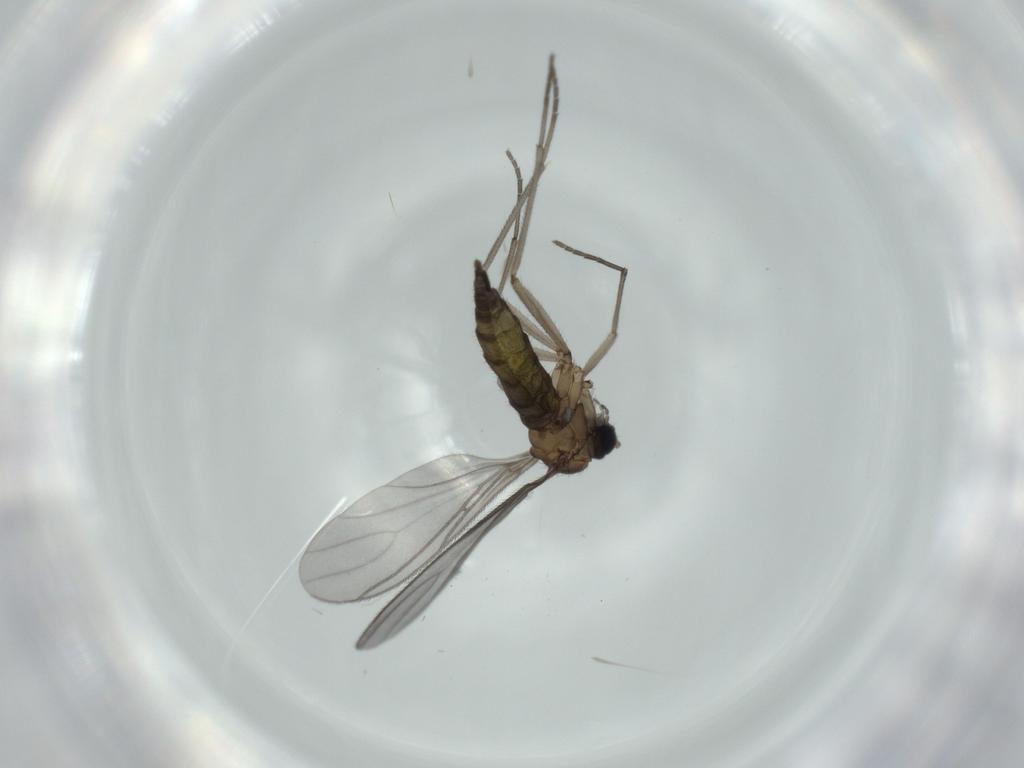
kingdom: Animalia
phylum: Arthropoda
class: Insecta
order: Diptera
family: Sciaridae
